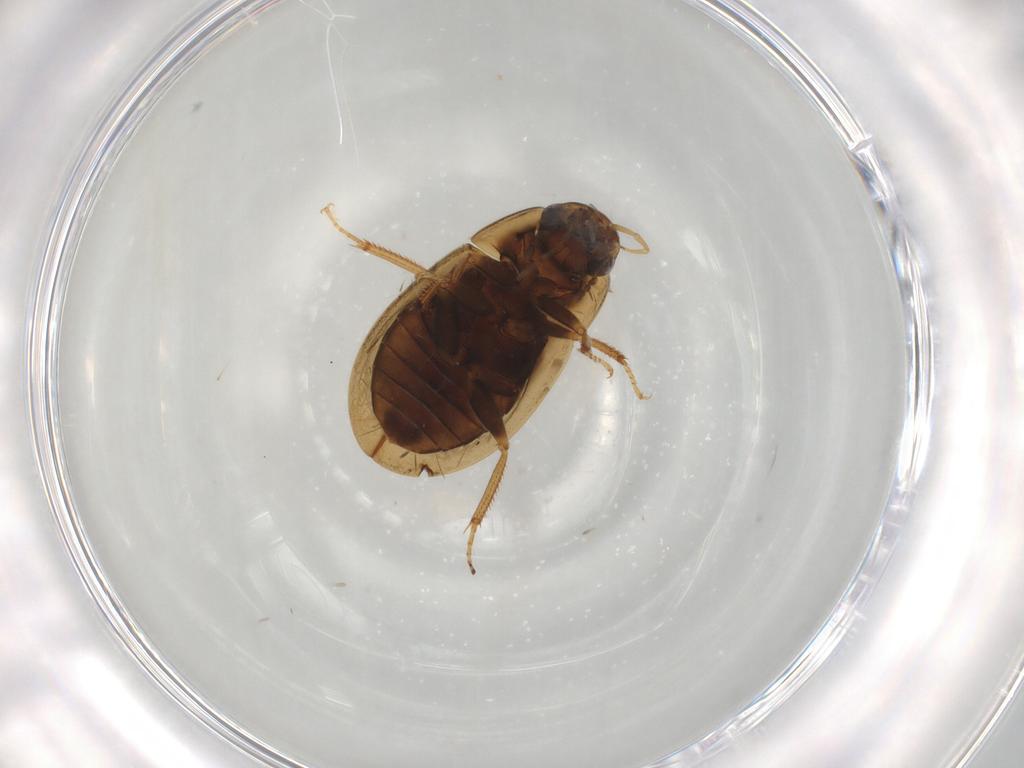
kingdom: Animalia
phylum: Arthropoda
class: Insecta
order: Coleoptera
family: Hydrophilidae
